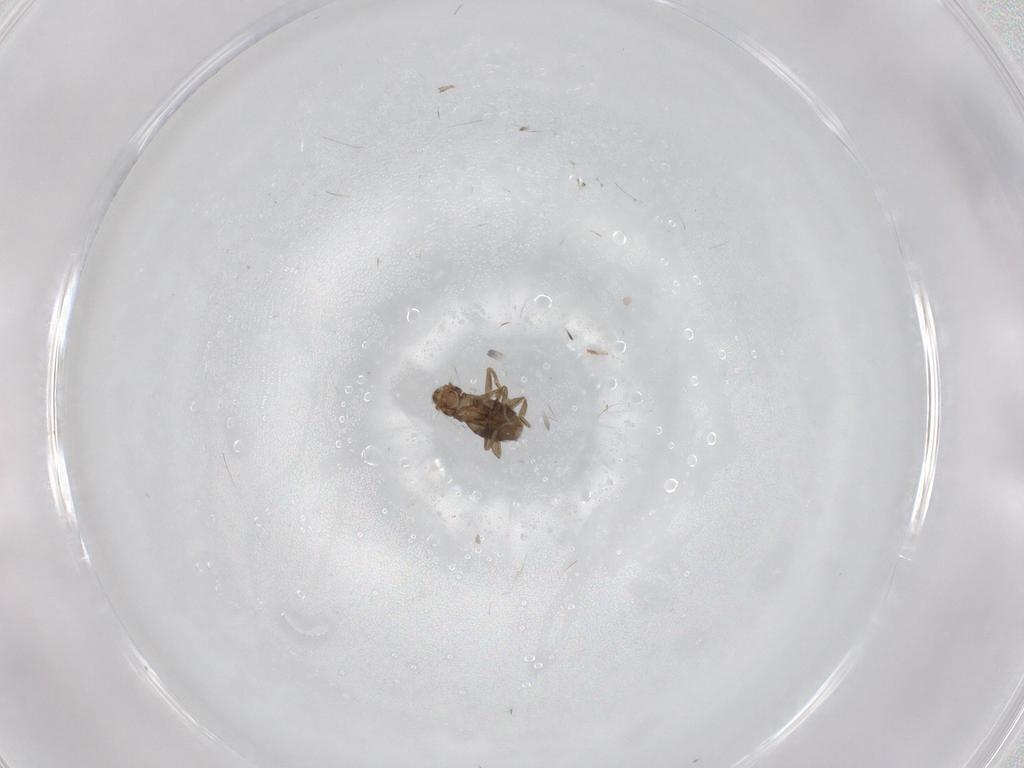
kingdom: Animalia
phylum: Arthropoda
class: Insecta
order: Diptera
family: Phoridae
